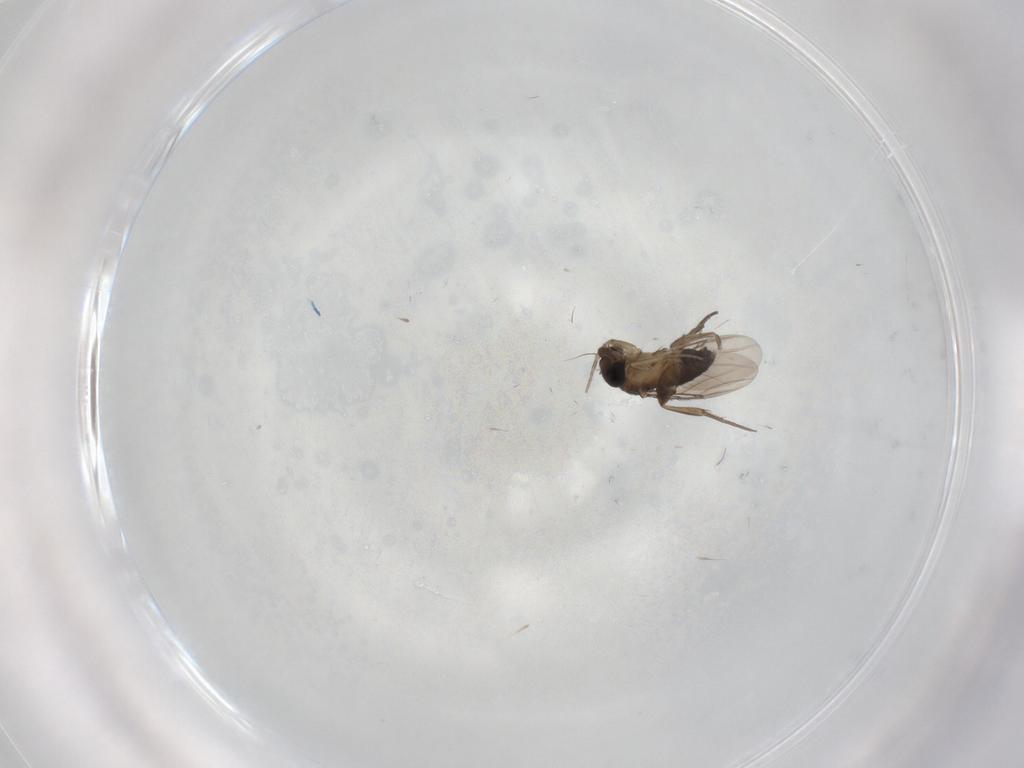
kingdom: Animalia
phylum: Arthropoda
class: Insecta
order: Diptera
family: Phoridae
